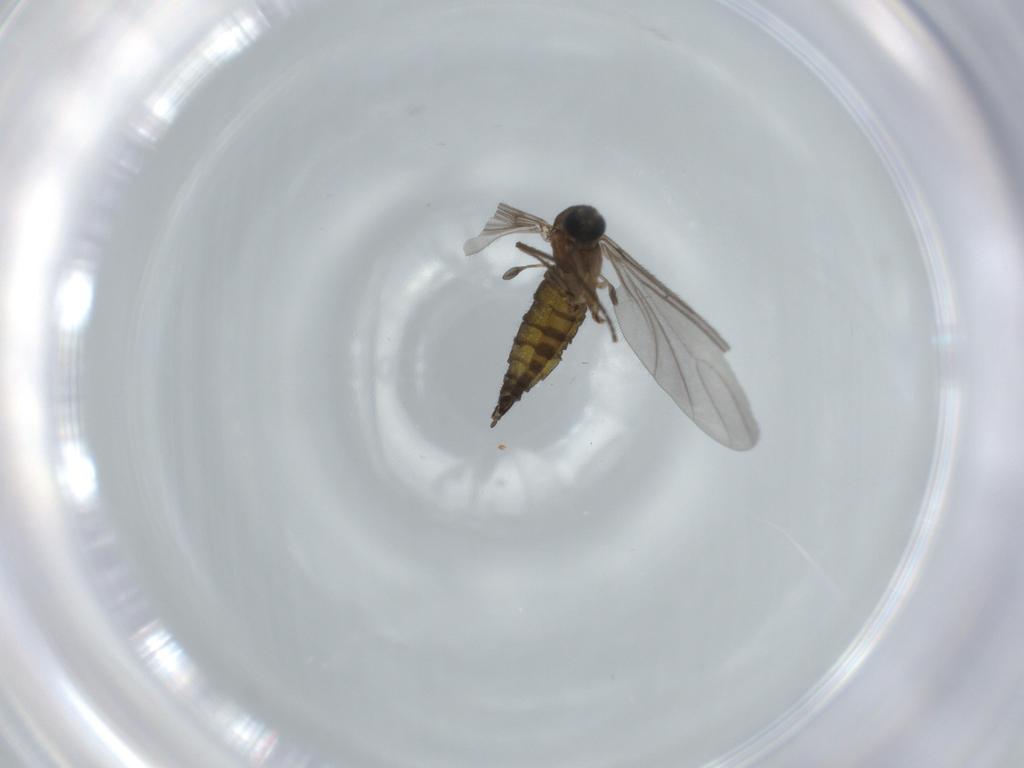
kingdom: Animalia
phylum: Arthropoda
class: Insecta
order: Diptera
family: Sciaridae
